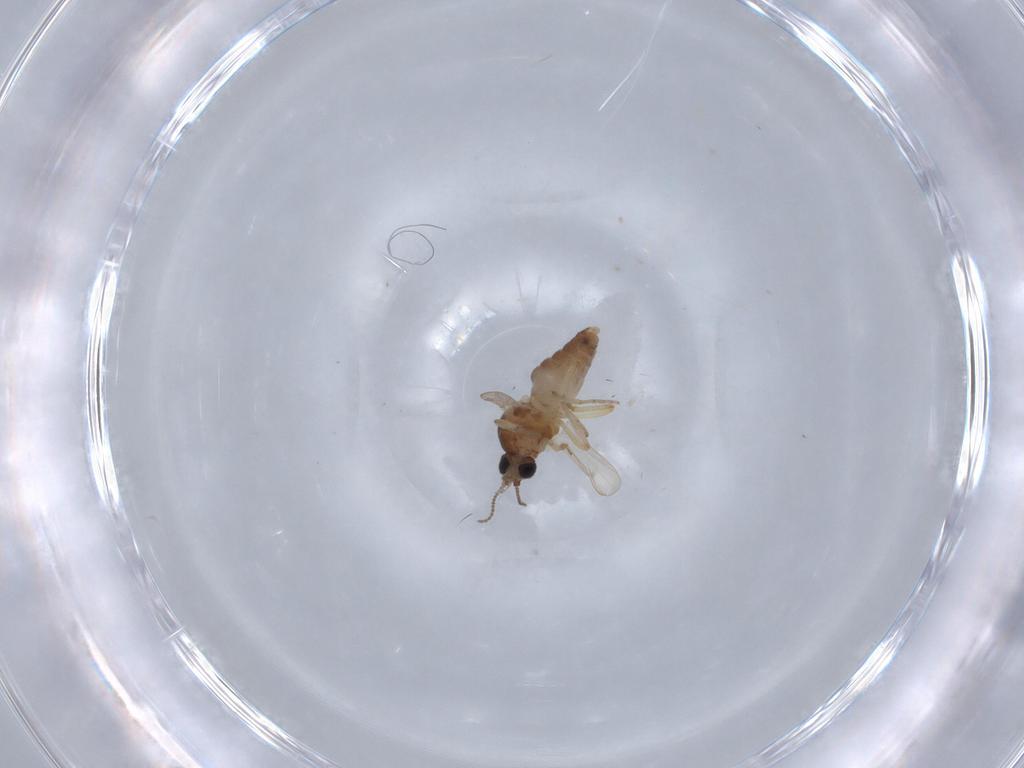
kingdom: Animalia
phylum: Arthropoda
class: Insecta
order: Diptera
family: Ceratopogonidae
